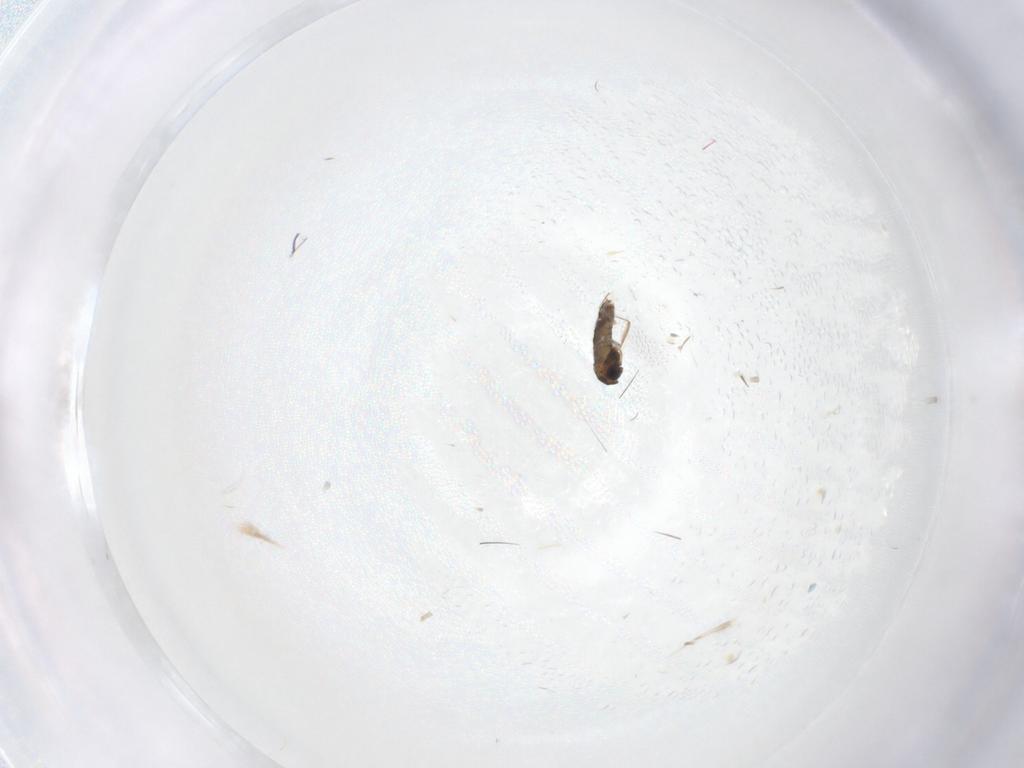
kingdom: Animalia
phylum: Arthropoda
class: Insecta
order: Diptera
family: Chironomidae
